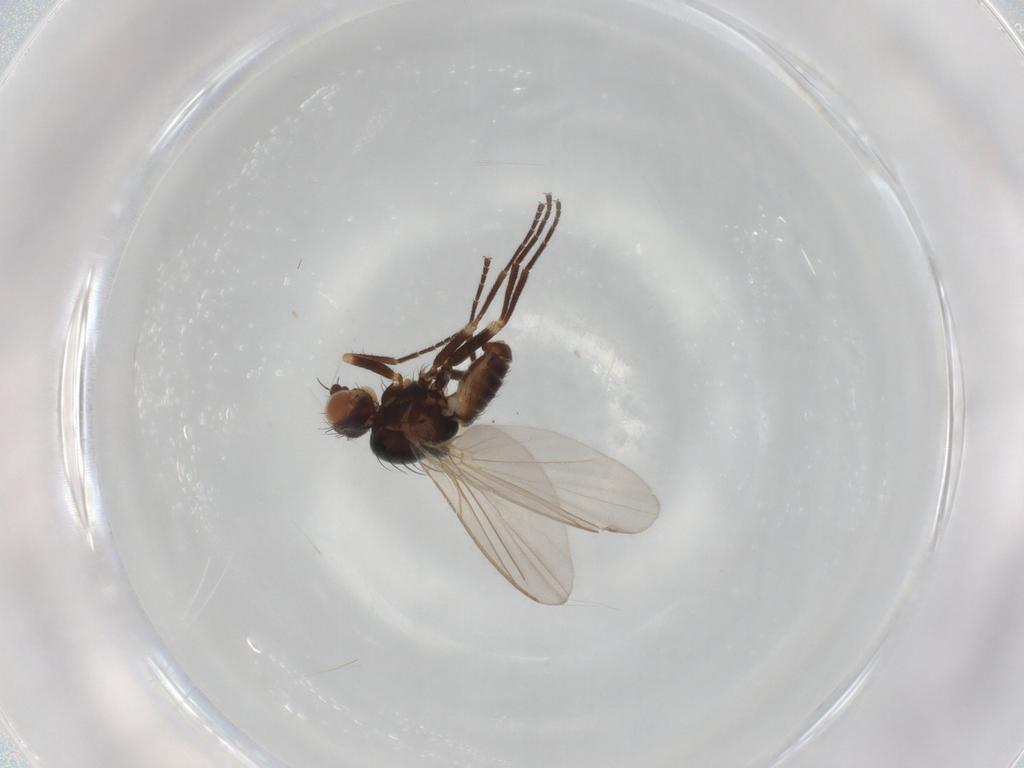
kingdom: Animalia
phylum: Arthropoda
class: Insecta
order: Diptera
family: Agromyzidae
